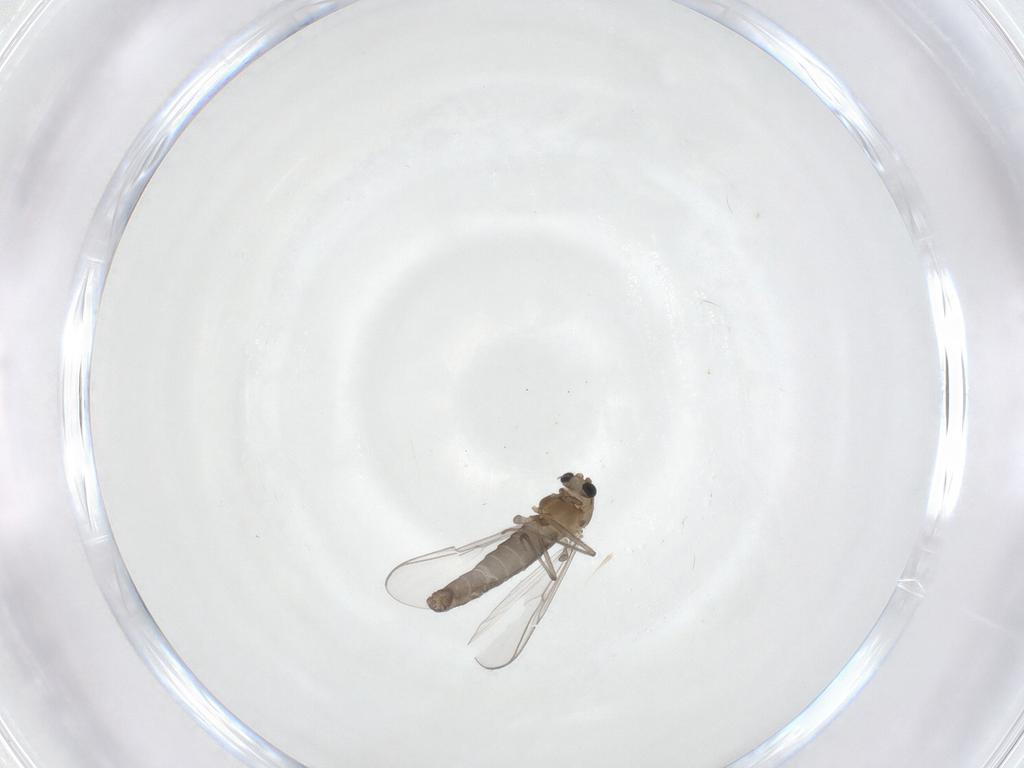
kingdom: Animalia
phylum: Arthropoda
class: Insecta
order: Diptera
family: Chironomidae
